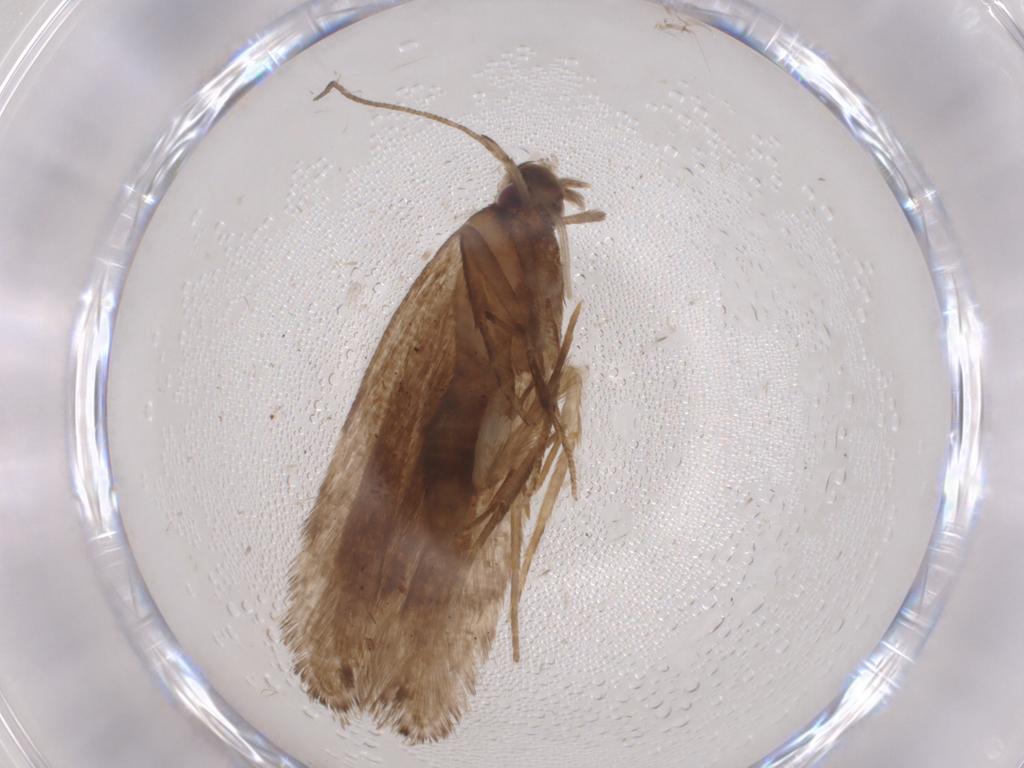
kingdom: Animalia
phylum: Arthropoda
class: Insecta
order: Lepidoptera
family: Gelechiidae
